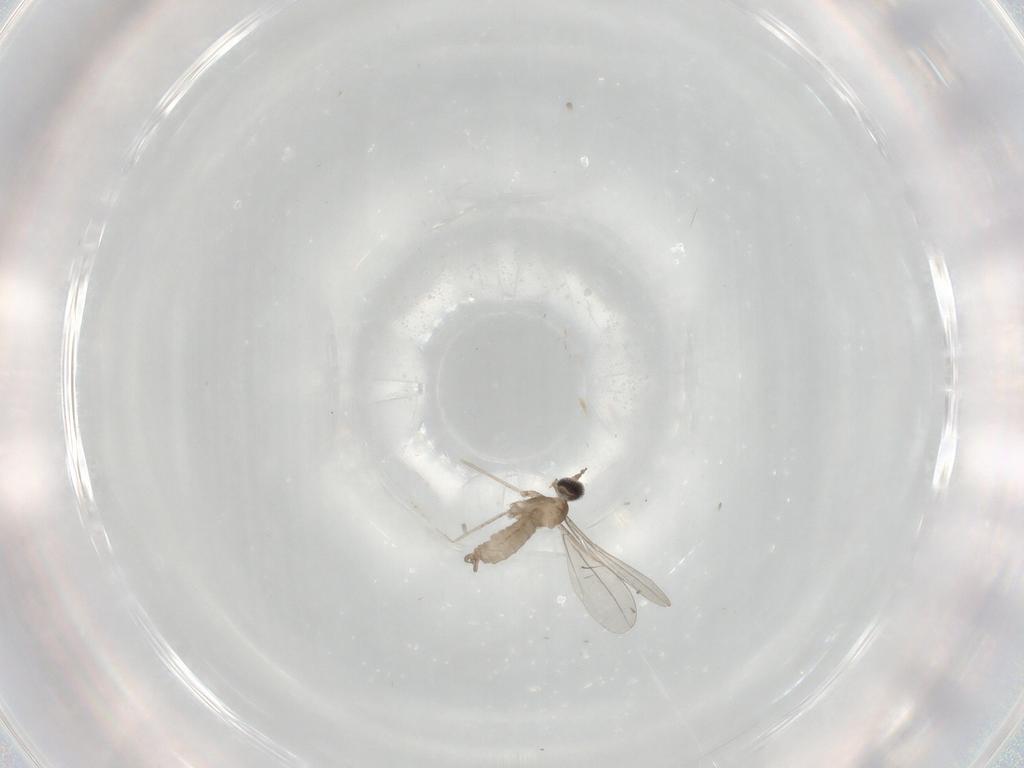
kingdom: Animalia
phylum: Arthropoda
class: Insecta
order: Diptera
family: Cecidomyiidae
